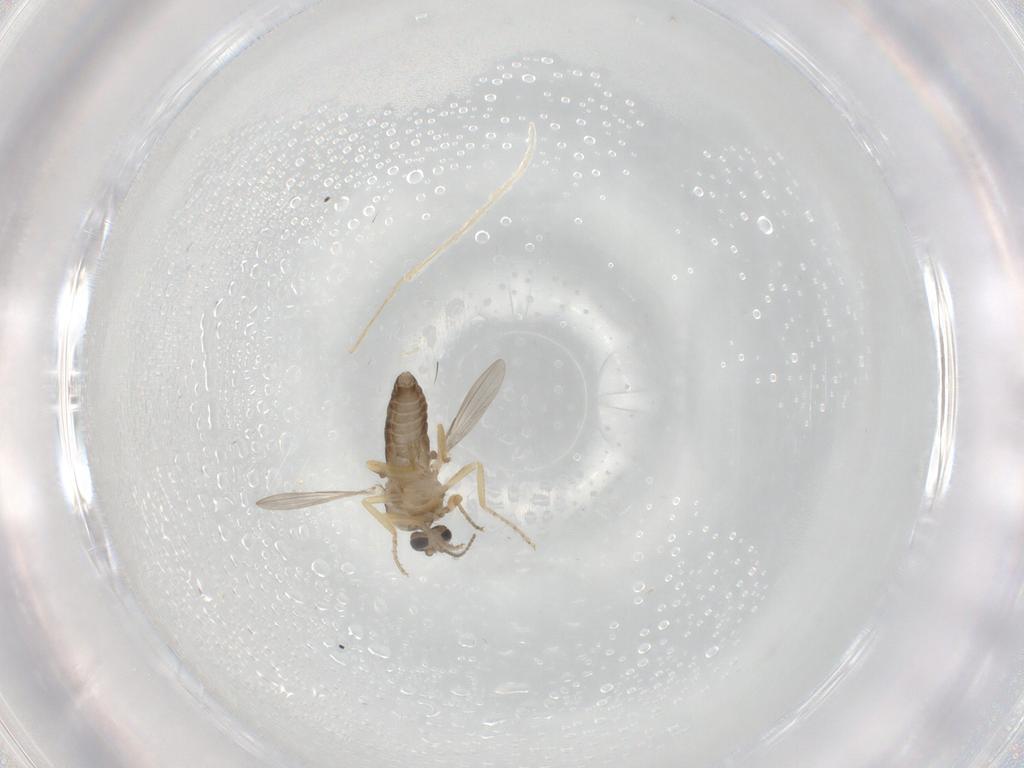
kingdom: Animalia
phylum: Arthropoda
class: Insecta
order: Diptera
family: Ceratopogonidae
